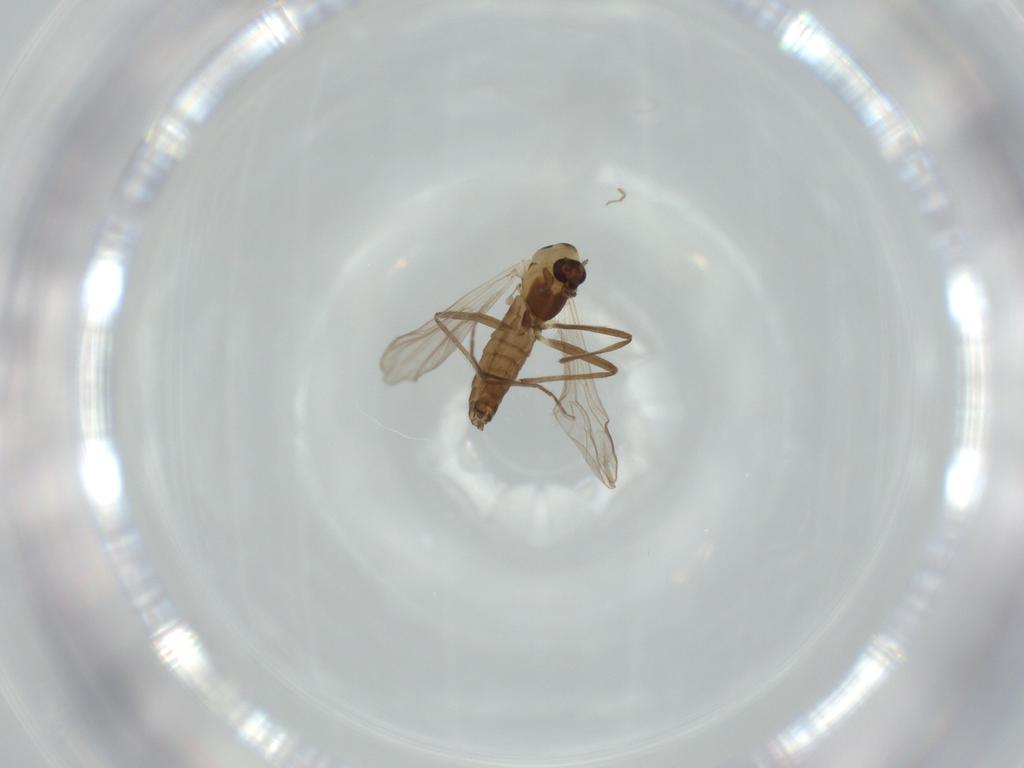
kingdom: Animalia
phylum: Arthropoda
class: Insecta
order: Diptera
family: Chironomidae
